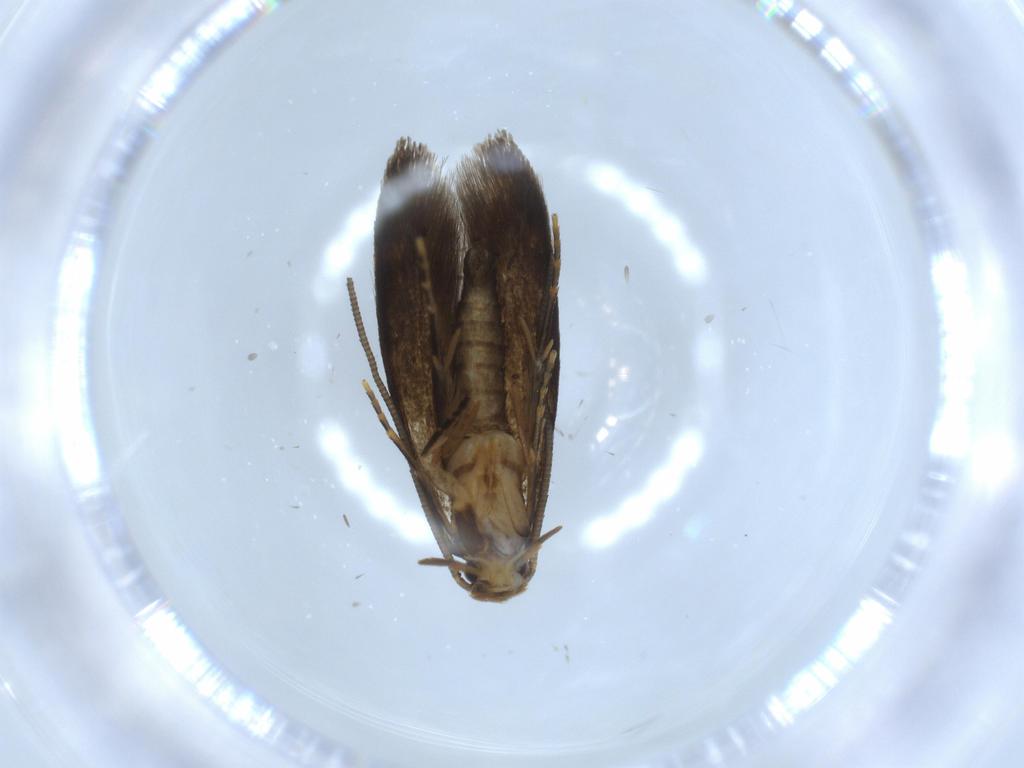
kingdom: Animalia
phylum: Arthropoda
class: Insecta
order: Lepidoptera
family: Tineidae
